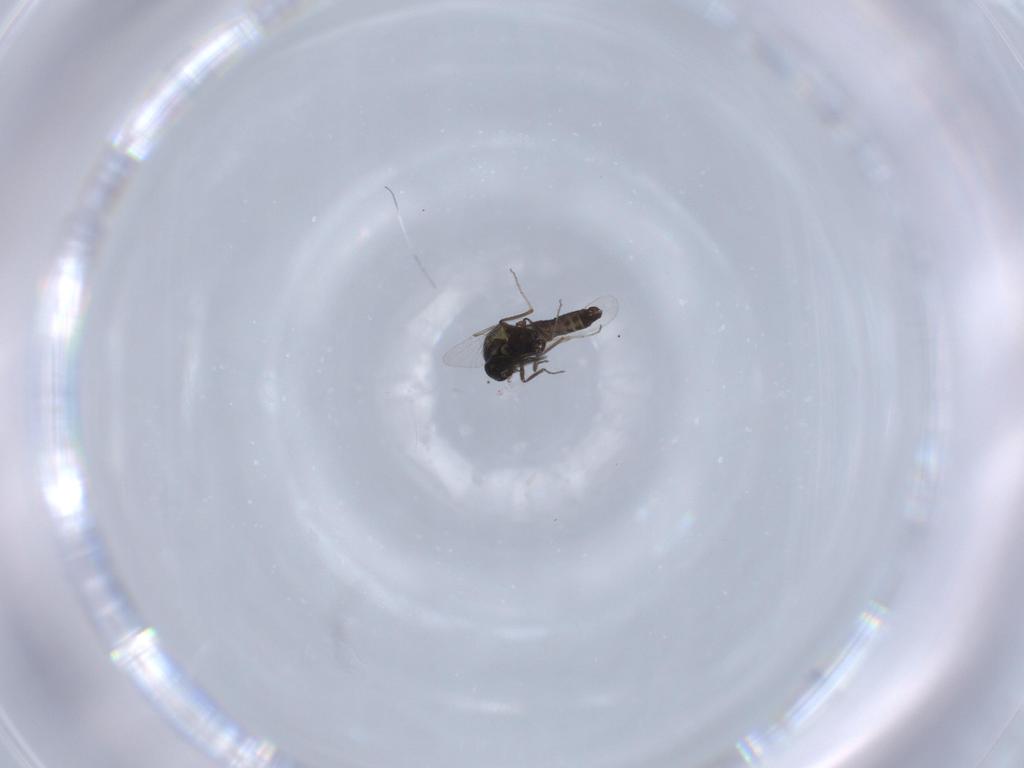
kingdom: Animalia
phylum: Arthropoda
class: Insecta
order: Diptera
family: Ceratopogonidae
